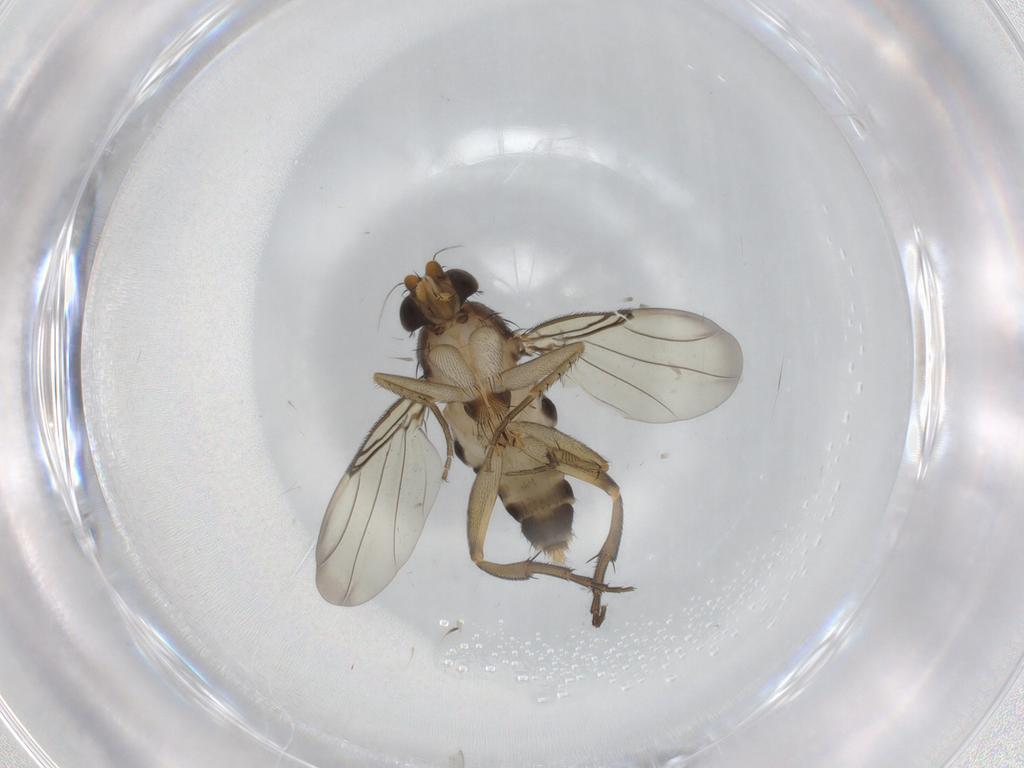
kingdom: Animalia
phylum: Arthropoda
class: Insecta
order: Diptera
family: Phoridae
